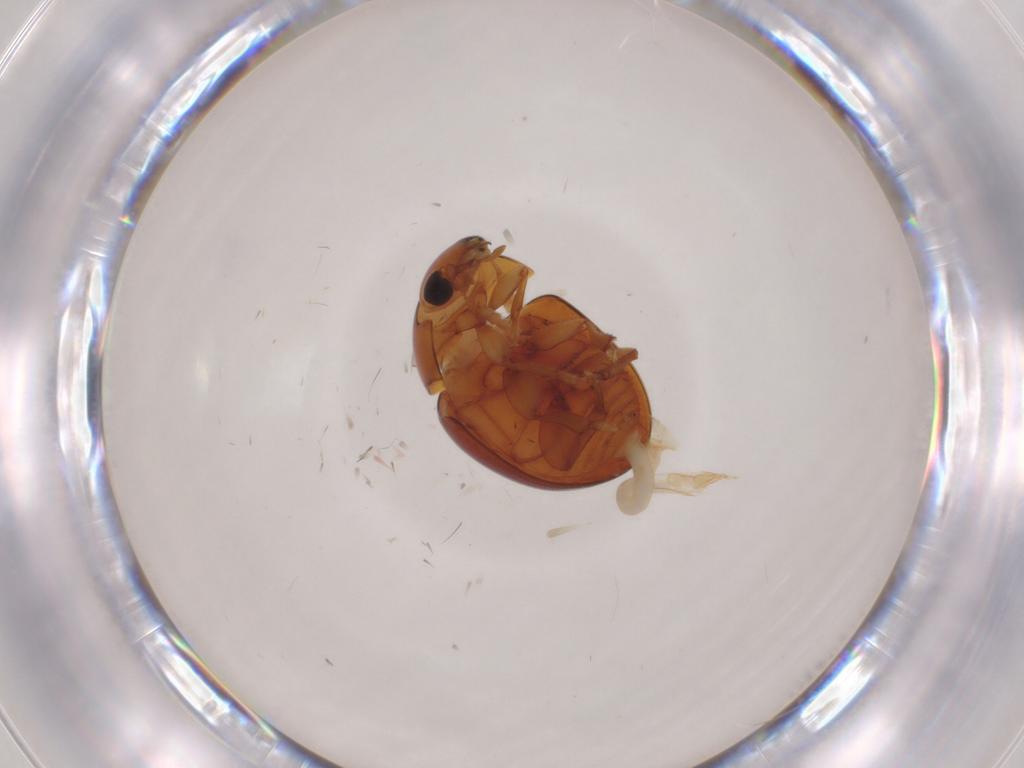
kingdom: Animalia
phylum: Arthropoda
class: Insecta
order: Coleoptera
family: Phalacridae
